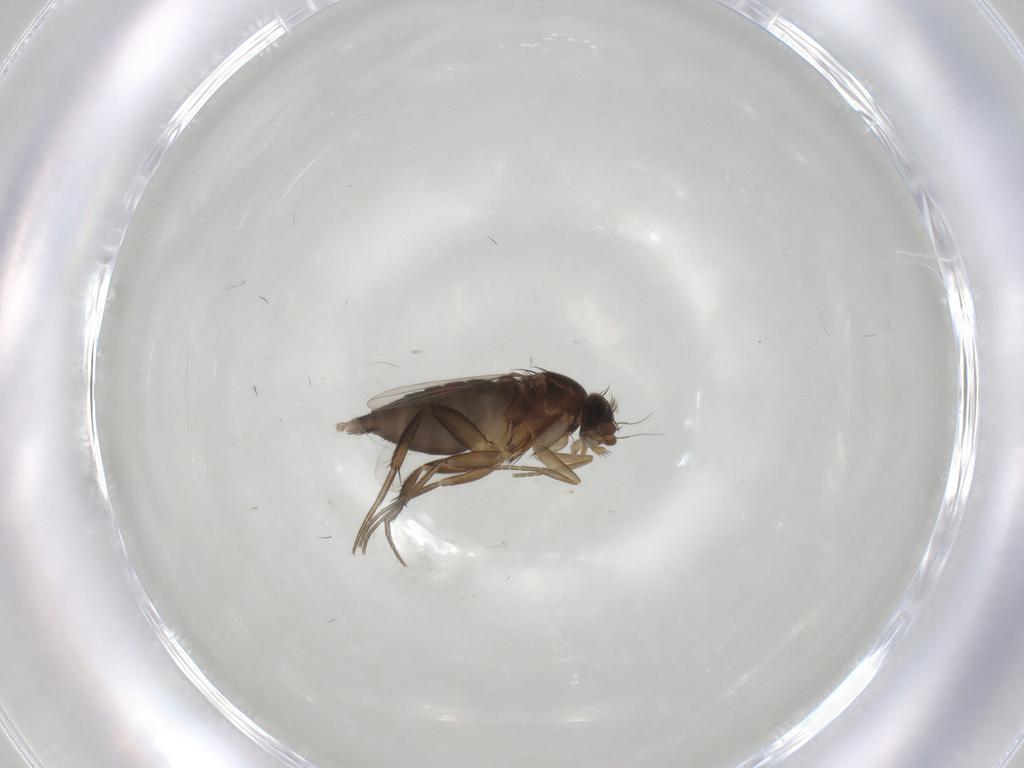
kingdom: Animalia
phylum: Arthropoda
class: Insecta
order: Diptera
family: Phoridae
